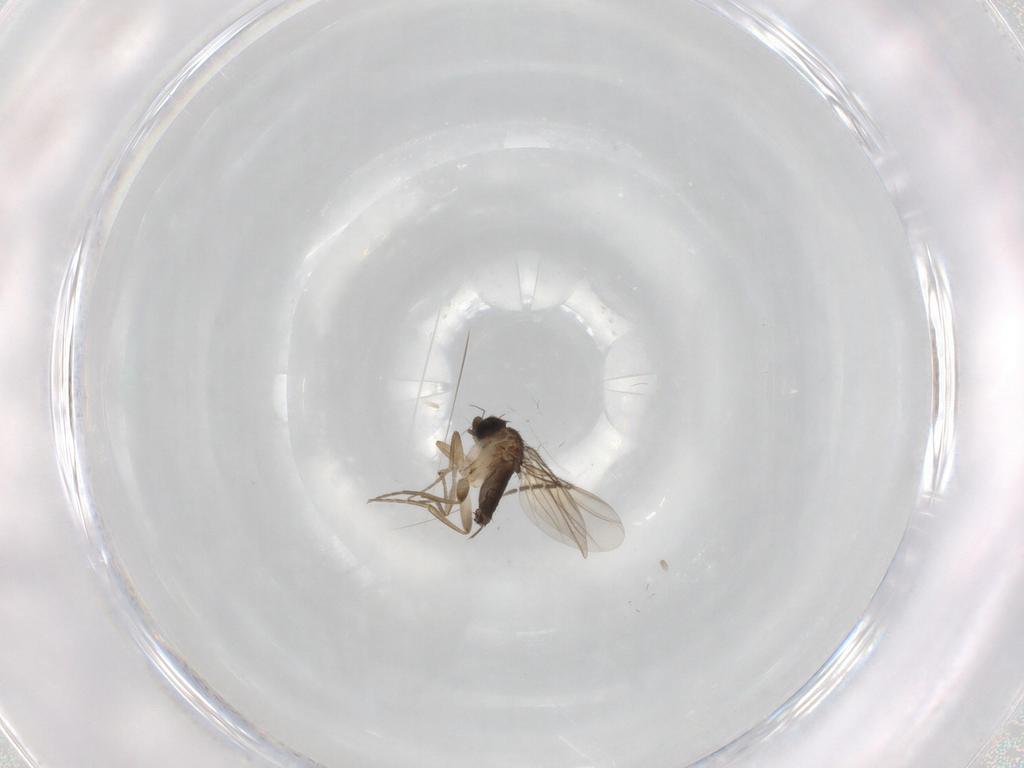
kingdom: Animalia
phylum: Arthropoda
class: Insecta
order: Diptera
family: Phoridae
